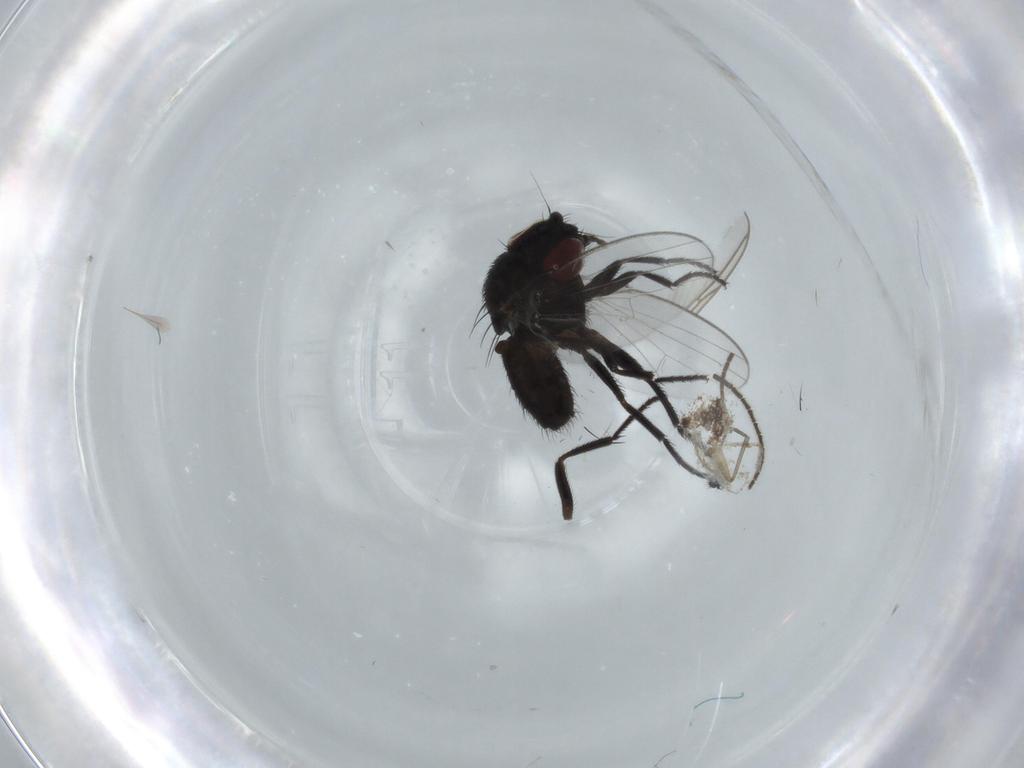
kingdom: Animalia
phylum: Arthropoda
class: Insecta
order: Diptera
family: Sciaridae
